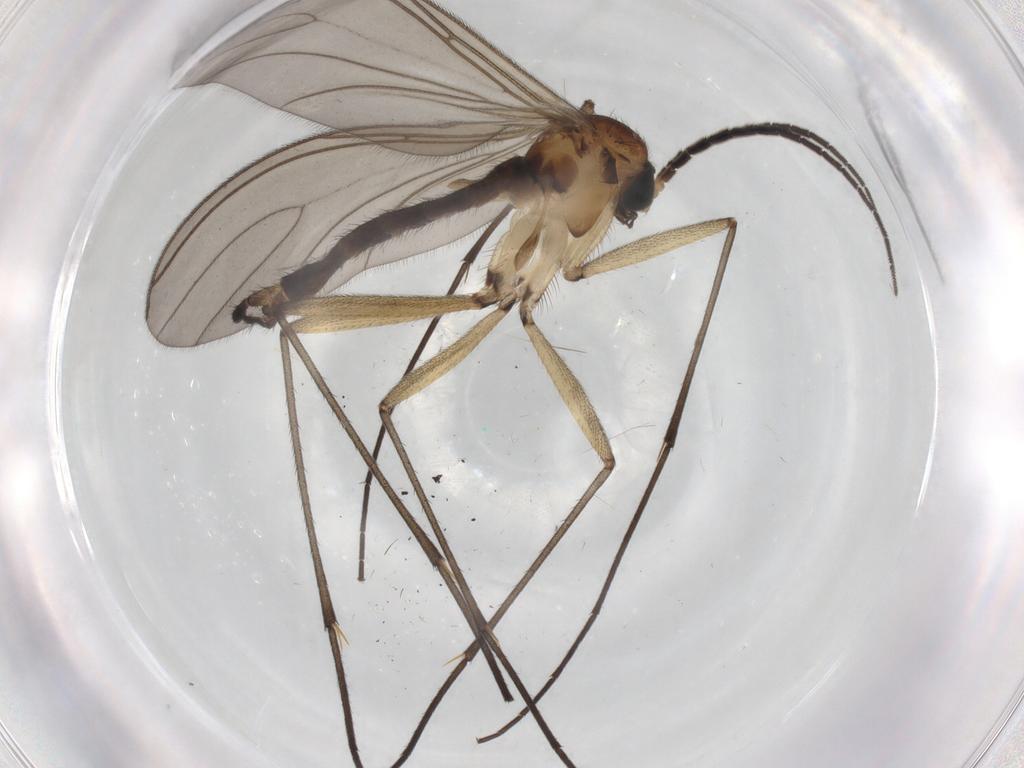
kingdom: Animalia
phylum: Arthropoda
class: Insecta
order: Diptera
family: Sciaridae
